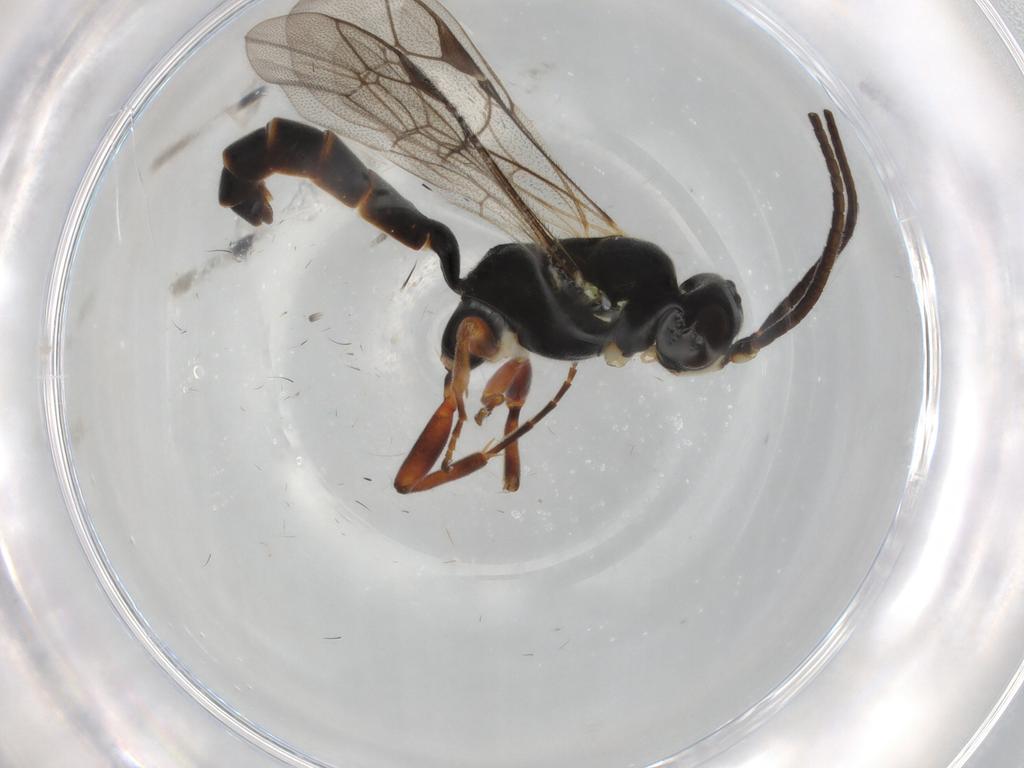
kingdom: Animalia
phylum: Arthropoda
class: Insecta
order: Hymenoptera
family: Ichneumonidae
